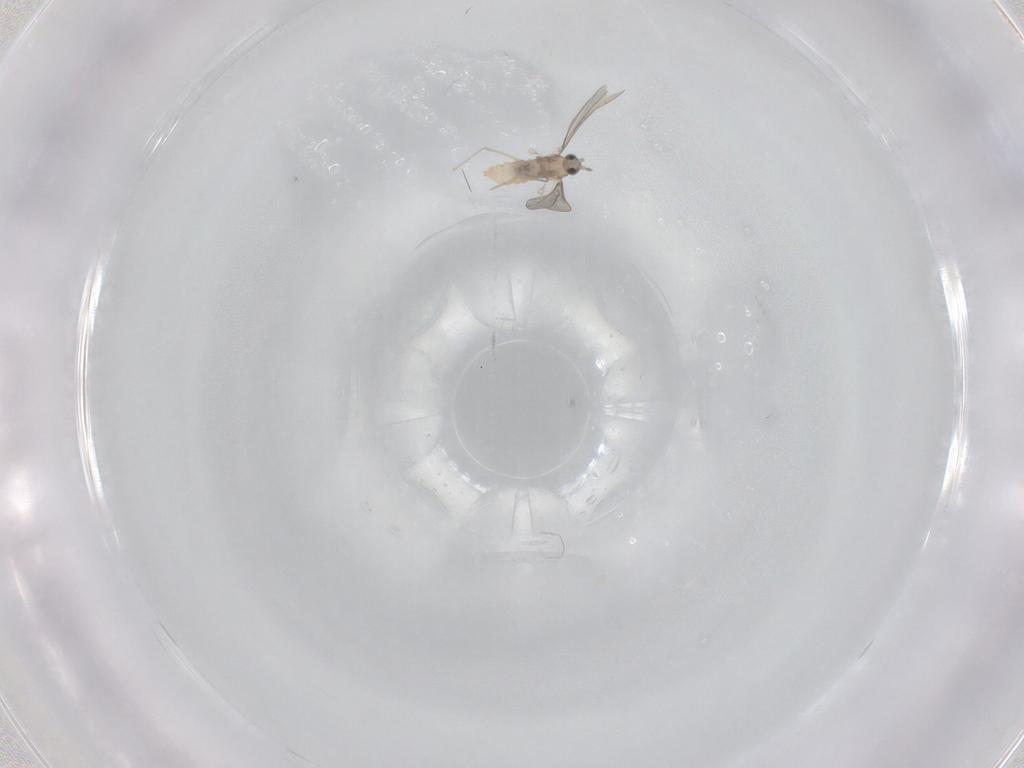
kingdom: Animalia
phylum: Arthropoda
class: Insecta
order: Diptera
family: Cecidomyiidae
